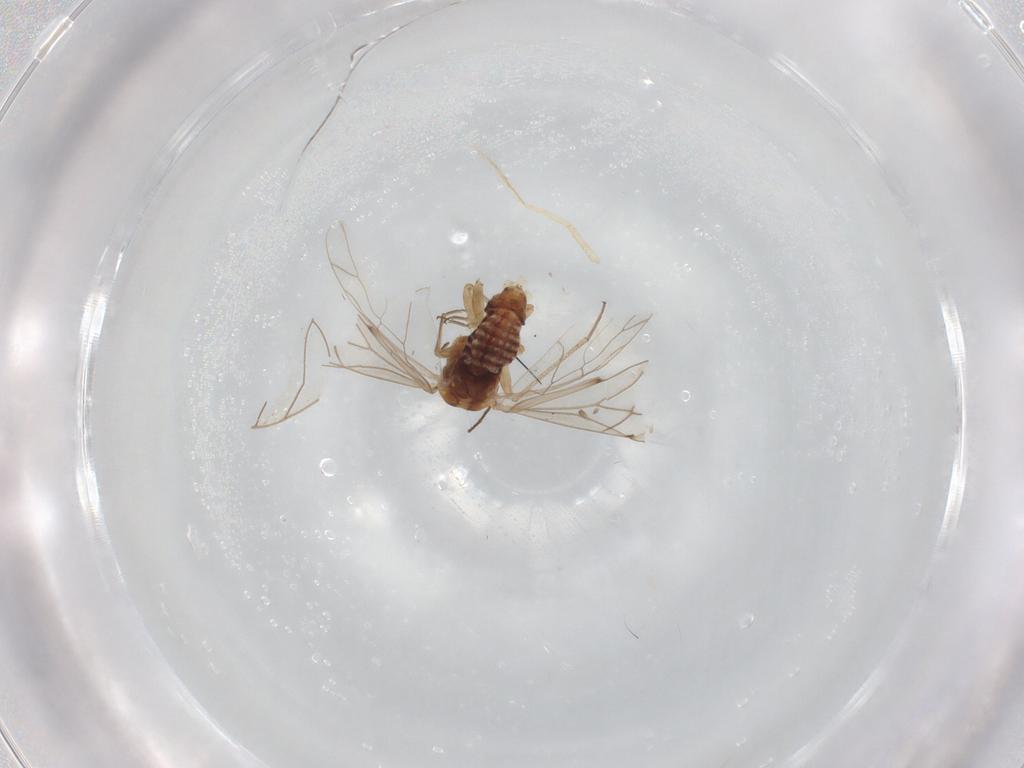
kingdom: Animalia
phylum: Arthropoda
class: Insecta
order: Psocodea
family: Lachesillidae
